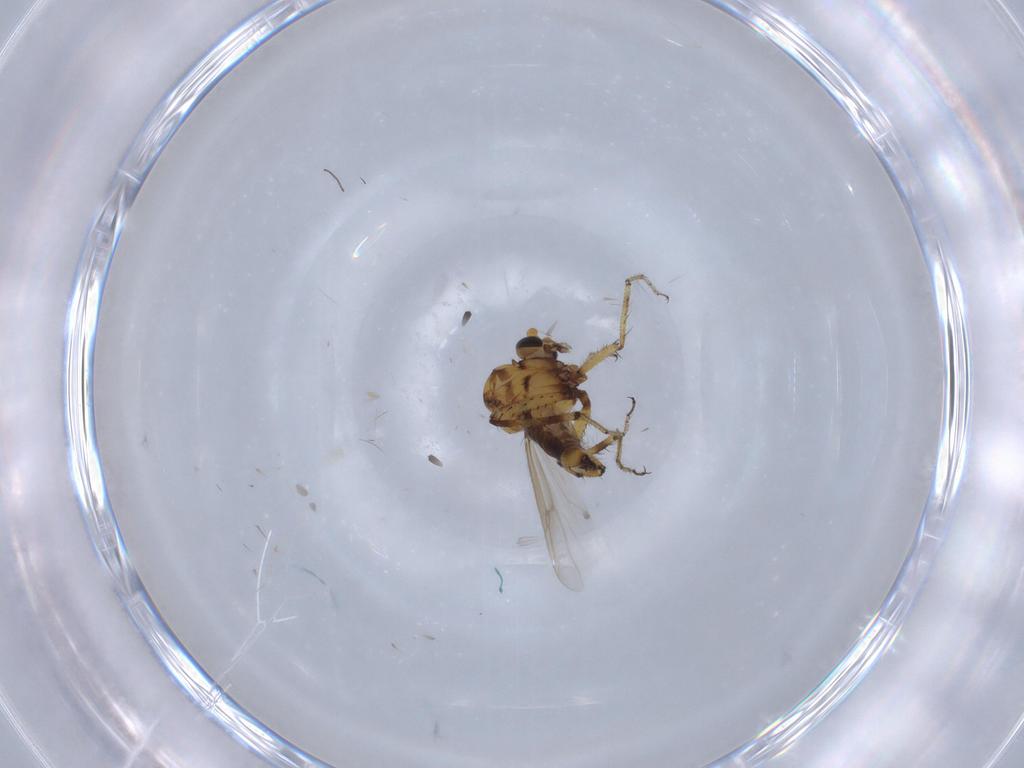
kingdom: Animalia
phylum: Arthropoda
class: Insecta
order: Diptera
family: Ceratopogonidae
